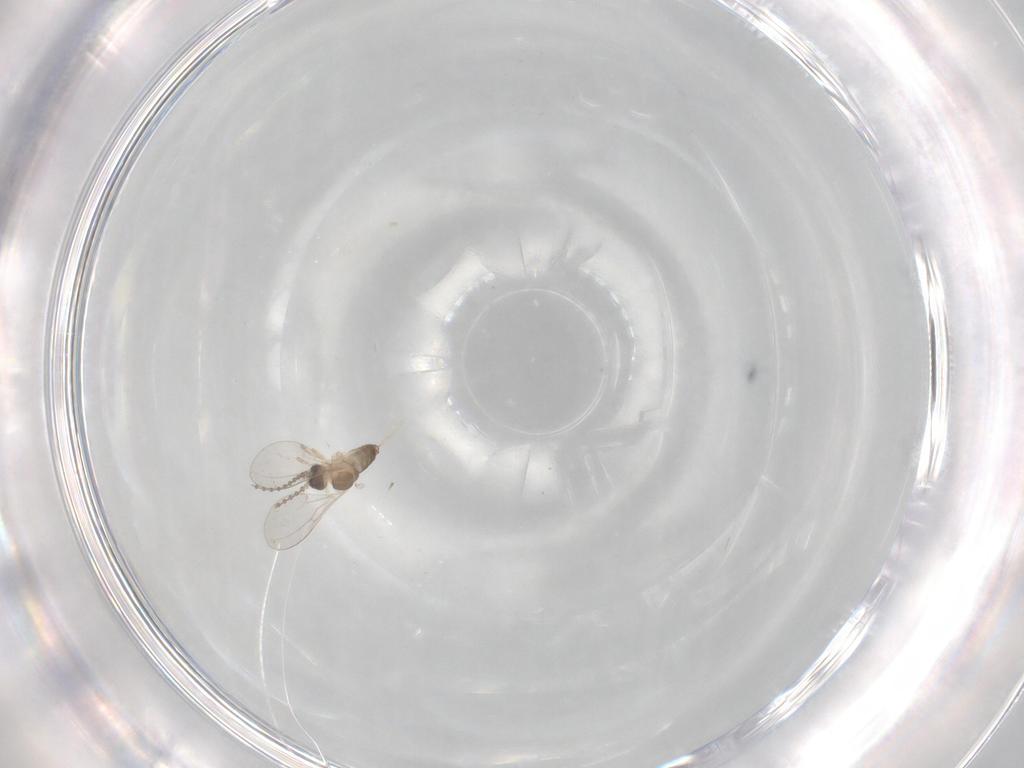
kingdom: Animalia
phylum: Arthropoda
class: Insecta
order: Diptera
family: Cecidomyiidae
